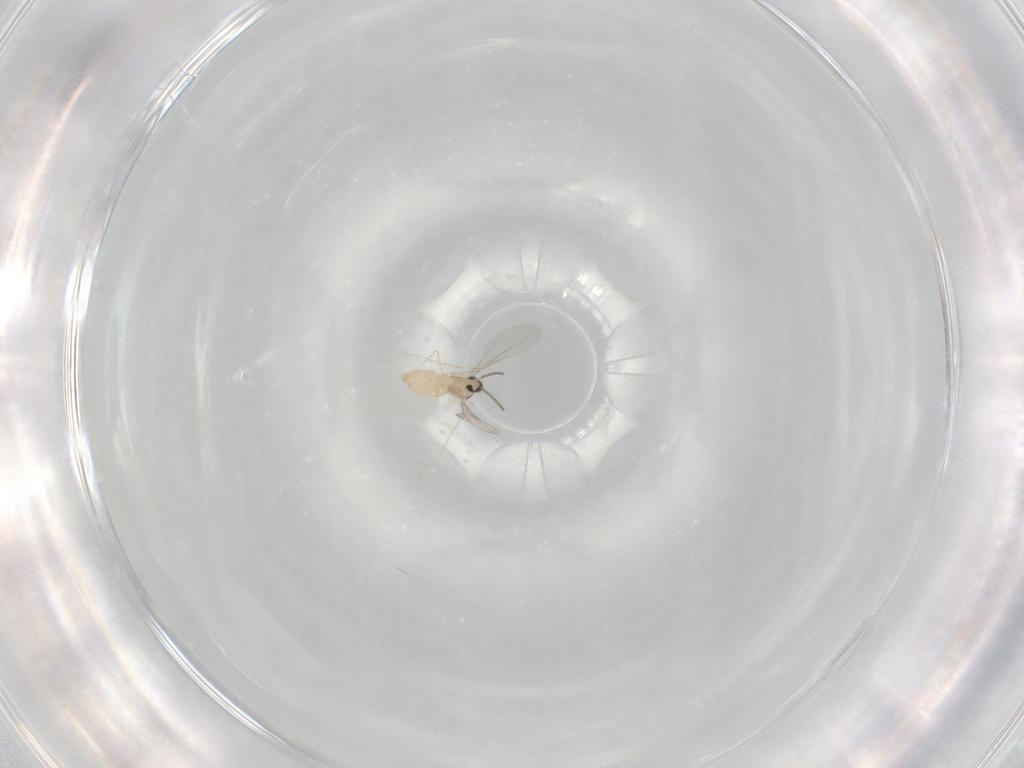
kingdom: Animalia
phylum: Arthropoda
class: Insecta
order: Diptera
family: Cecidomyiidae
